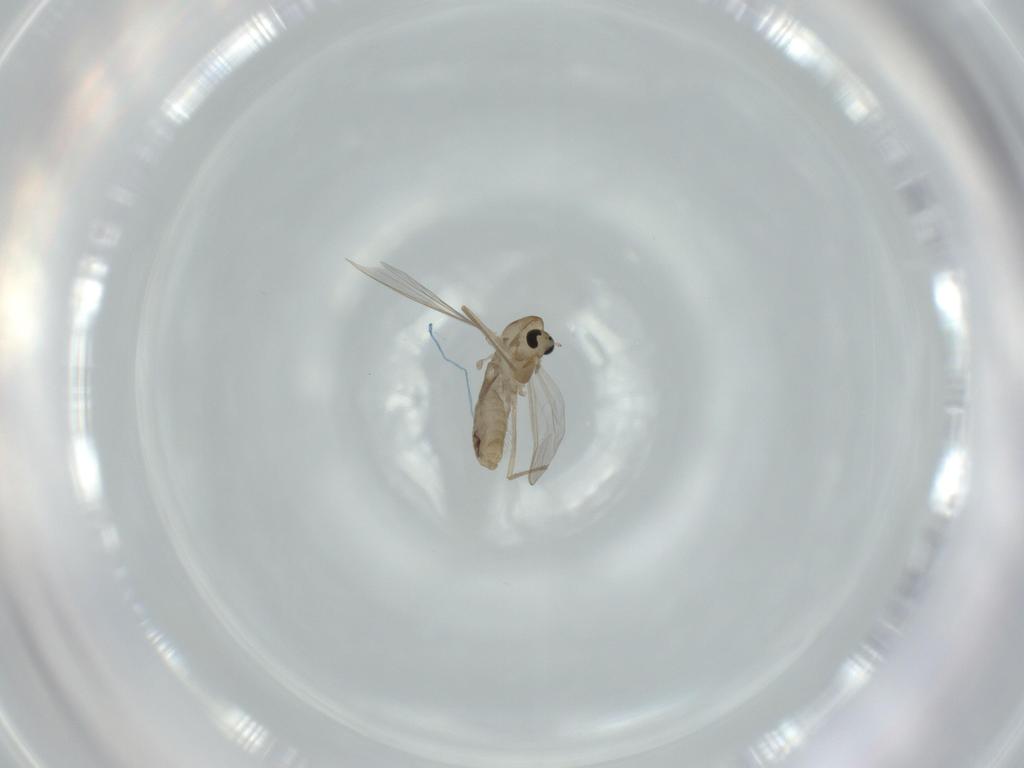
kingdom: Animalia
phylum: Arthropoda
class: Insecta
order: Diptera
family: Chironomidae
